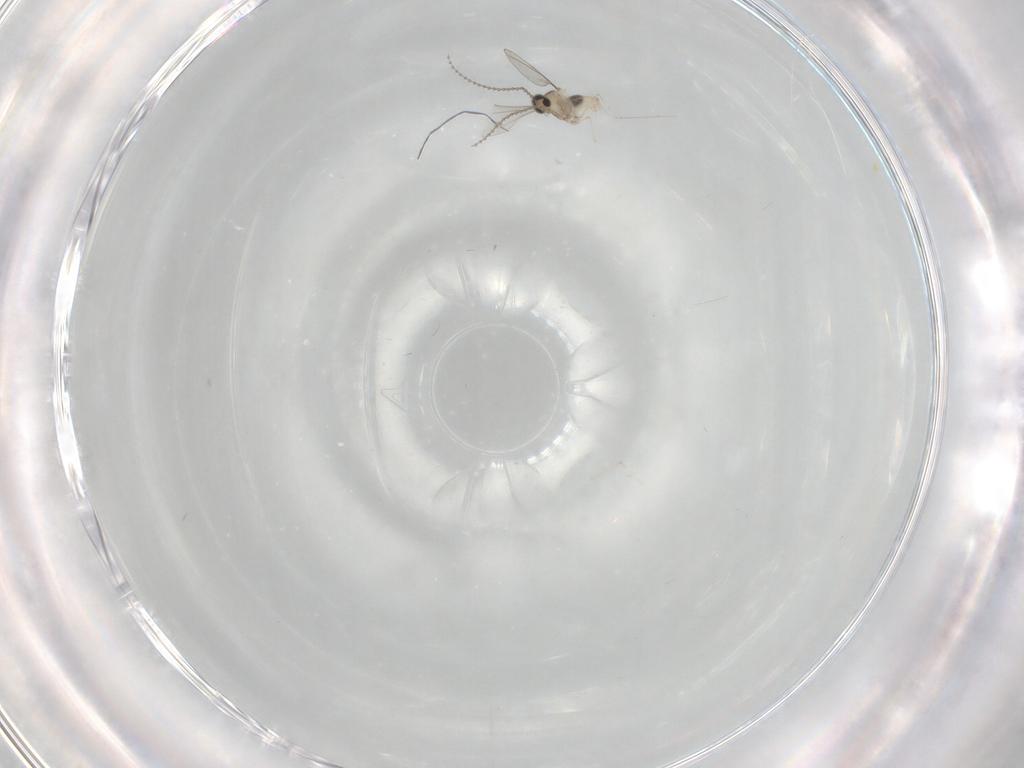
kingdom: Animalia
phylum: Arthropoda
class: Insecta
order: Diptera
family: Cecidomyiidae
